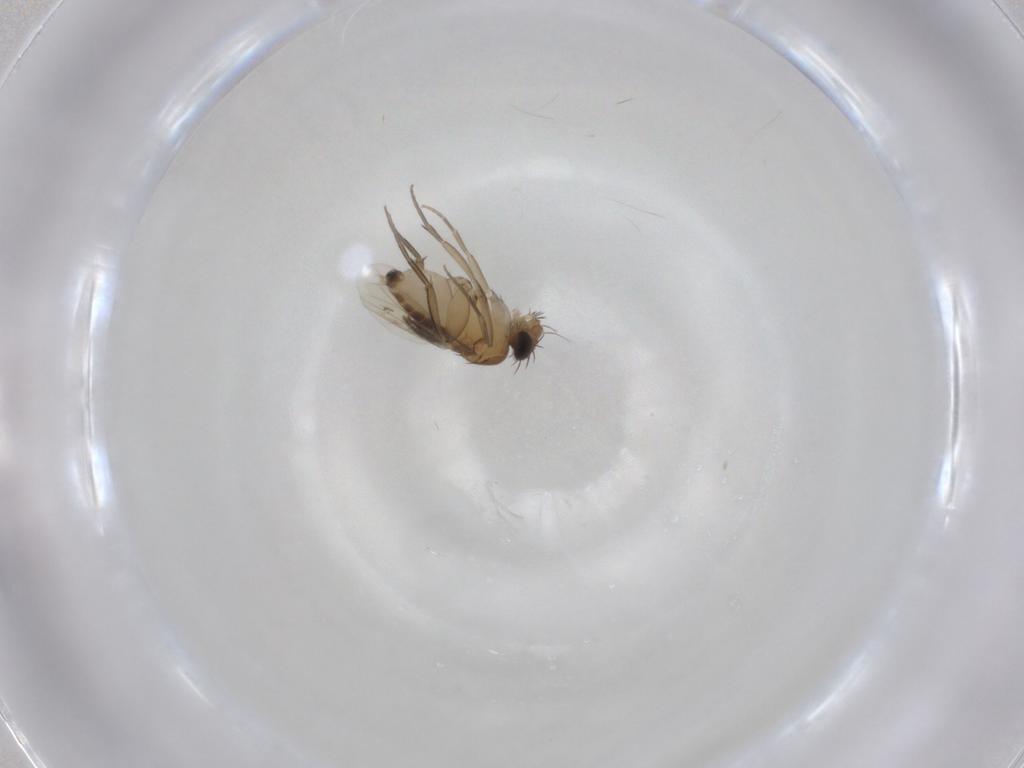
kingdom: Animalia
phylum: Arthropoda
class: Insecta
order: Diptera
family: Phoridae
